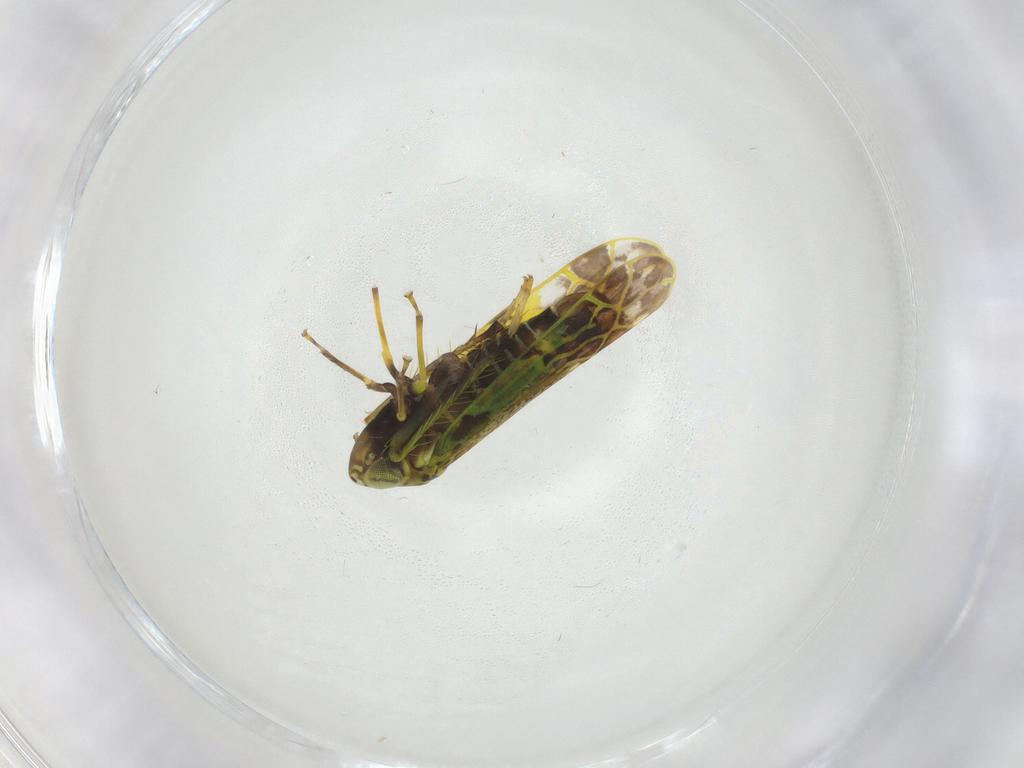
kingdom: Animalia
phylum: Arthropoda
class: Insecta
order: Hemiptera
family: Cicadellidae
